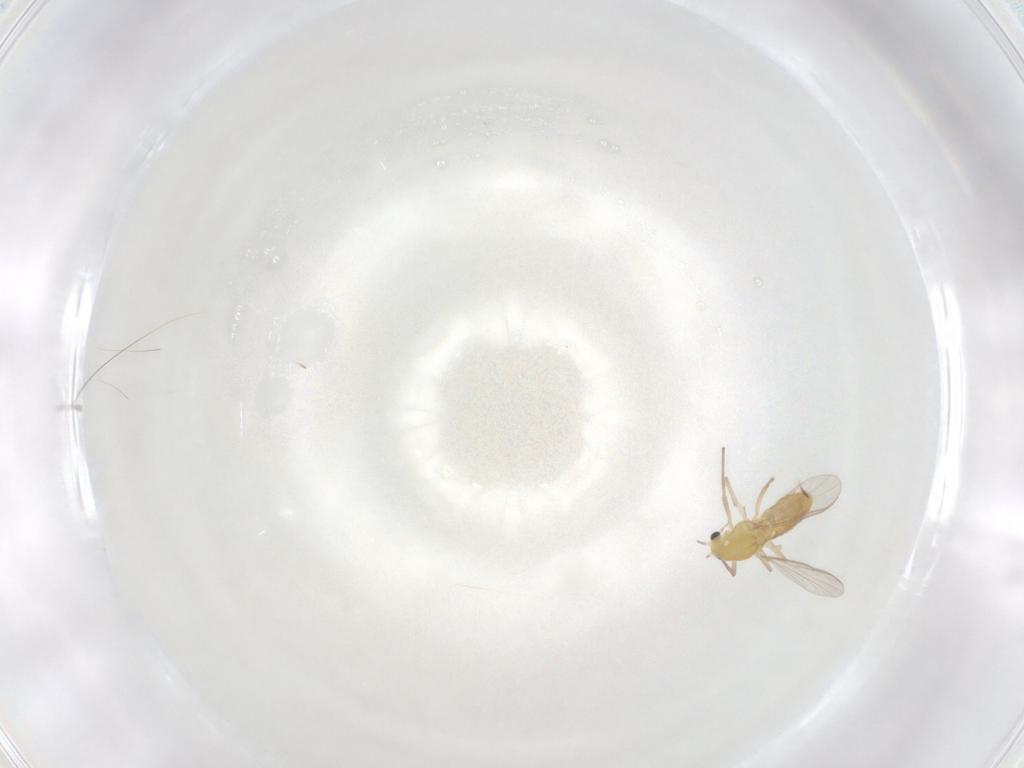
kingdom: Animalia
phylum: Arthropoda
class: Insecta
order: Diptera
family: Chironomidae
